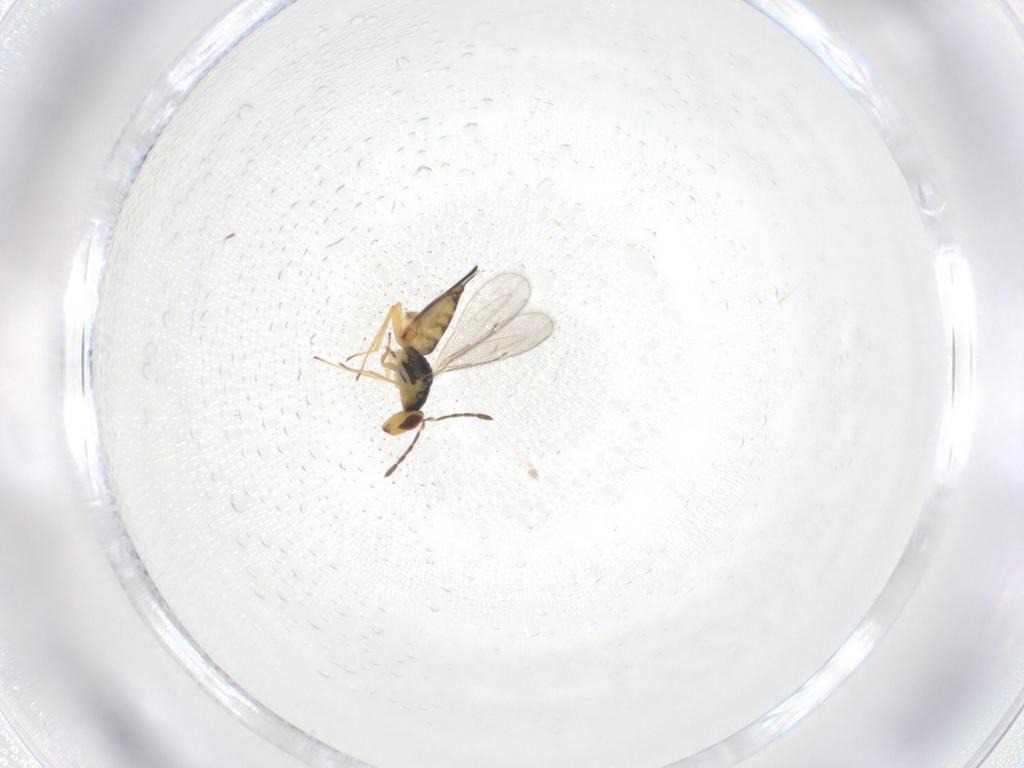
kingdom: Animalia
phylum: Arthropoda
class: Insecta
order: Hymenoptera
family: Eulophidae
